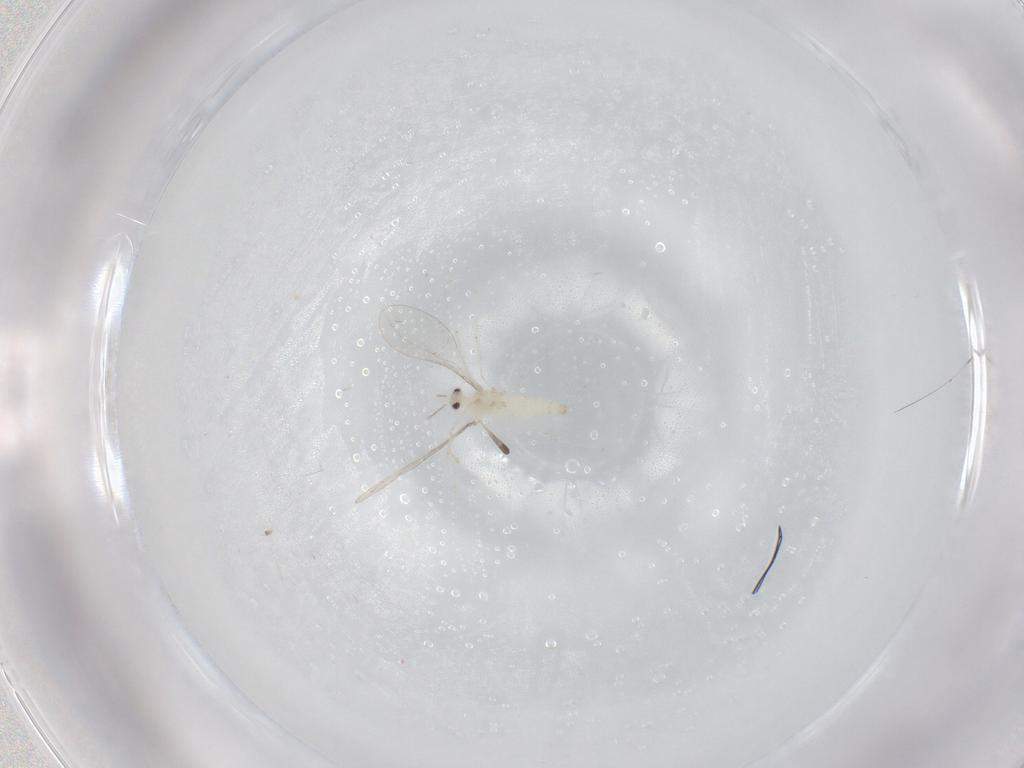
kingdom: Animalia
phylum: Arthropoda
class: Insecta
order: Diptera
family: Cecidomyiidae
